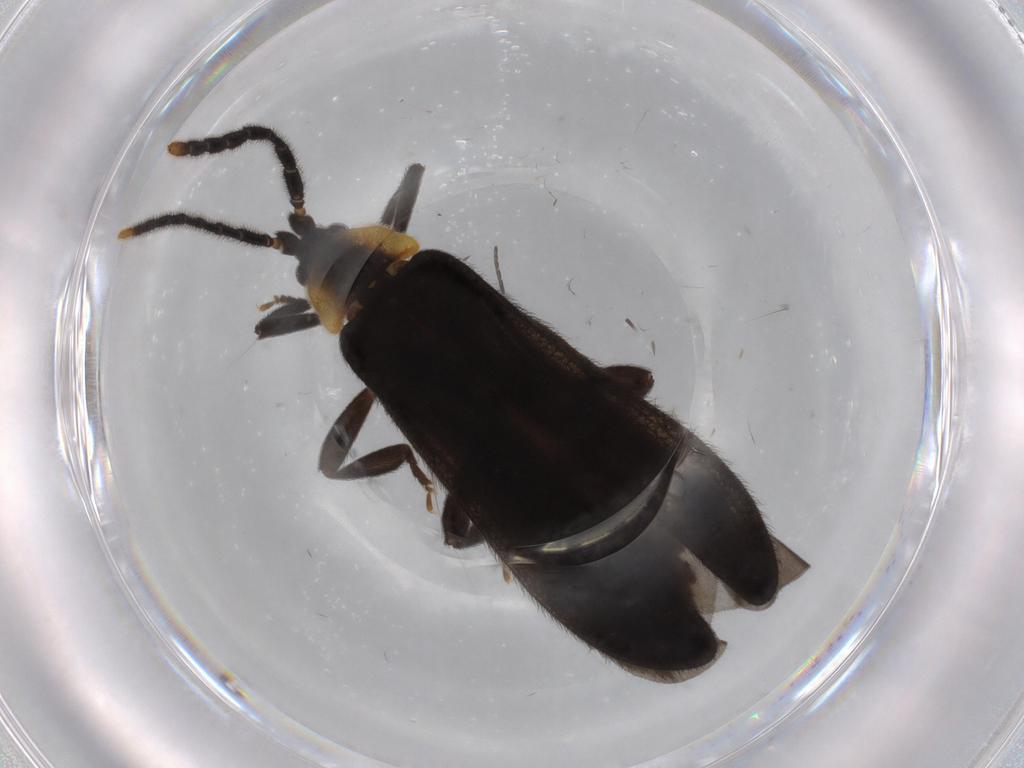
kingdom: Animalia
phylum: Arthropoda
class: Insecta
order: Coleoptera
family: Lycidae
